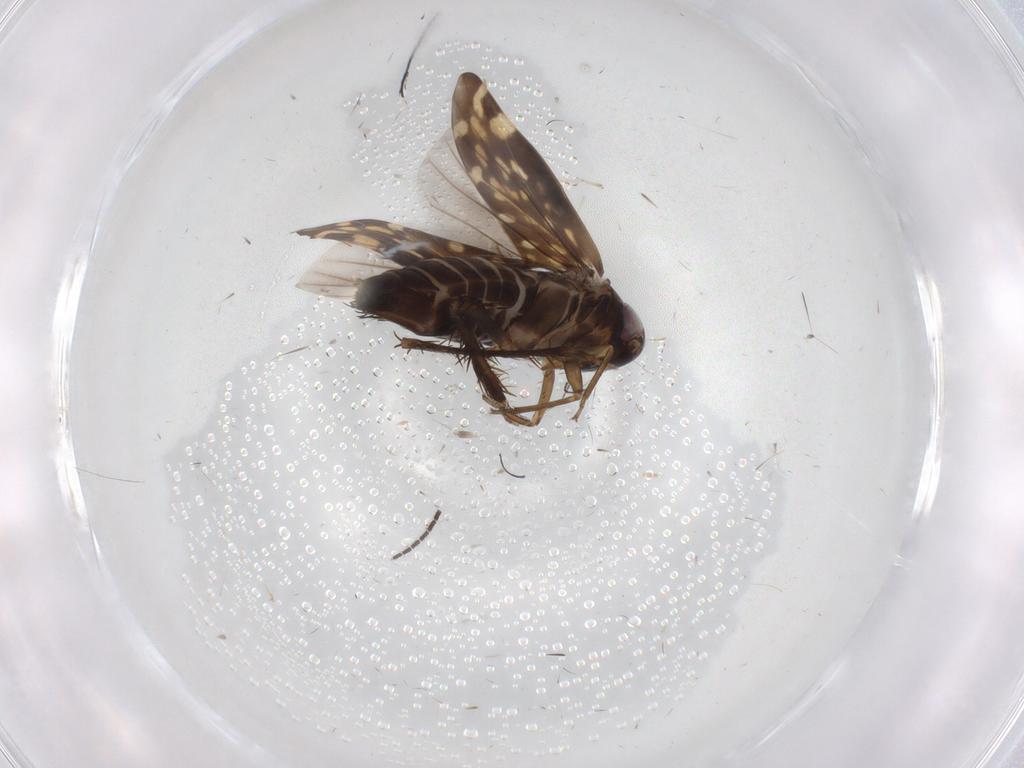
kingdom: Animalia
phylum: Arthropoda
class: Insecta
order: Hemiptera
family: Cicadellidae
